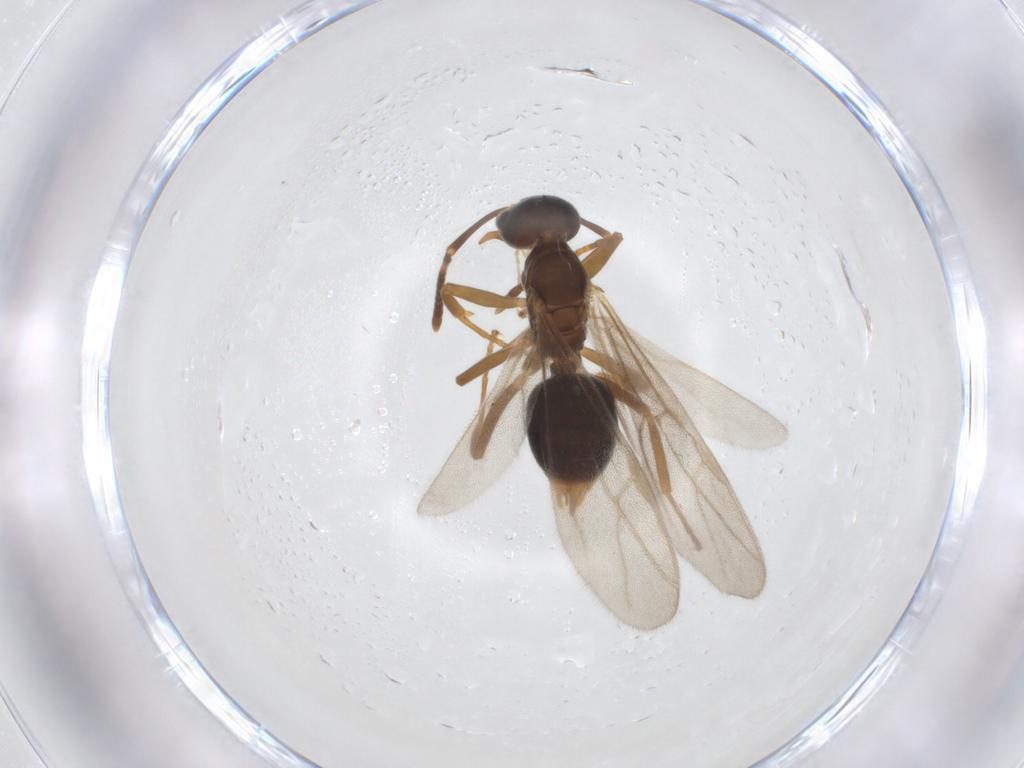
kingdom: Animalia
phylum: Arthropoda
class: Insecta
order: Hymenoptera
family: Formicidae
